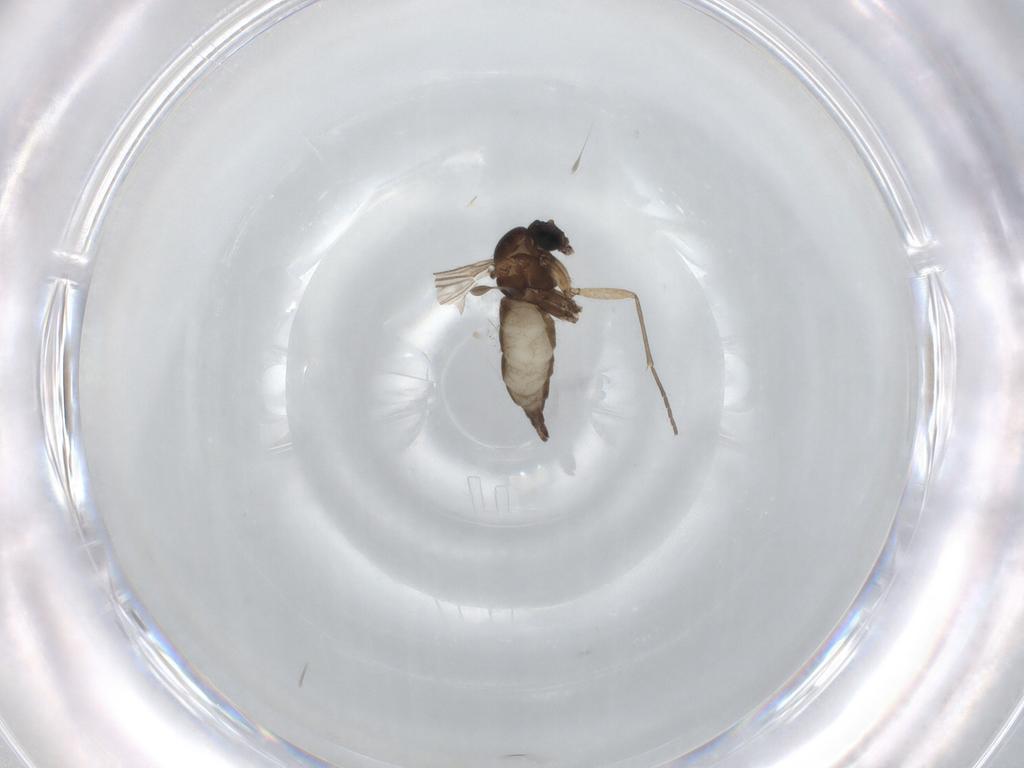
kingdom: Animalia
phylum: Arthropoda
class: Insecta
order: Diptera
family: Sciaridae
